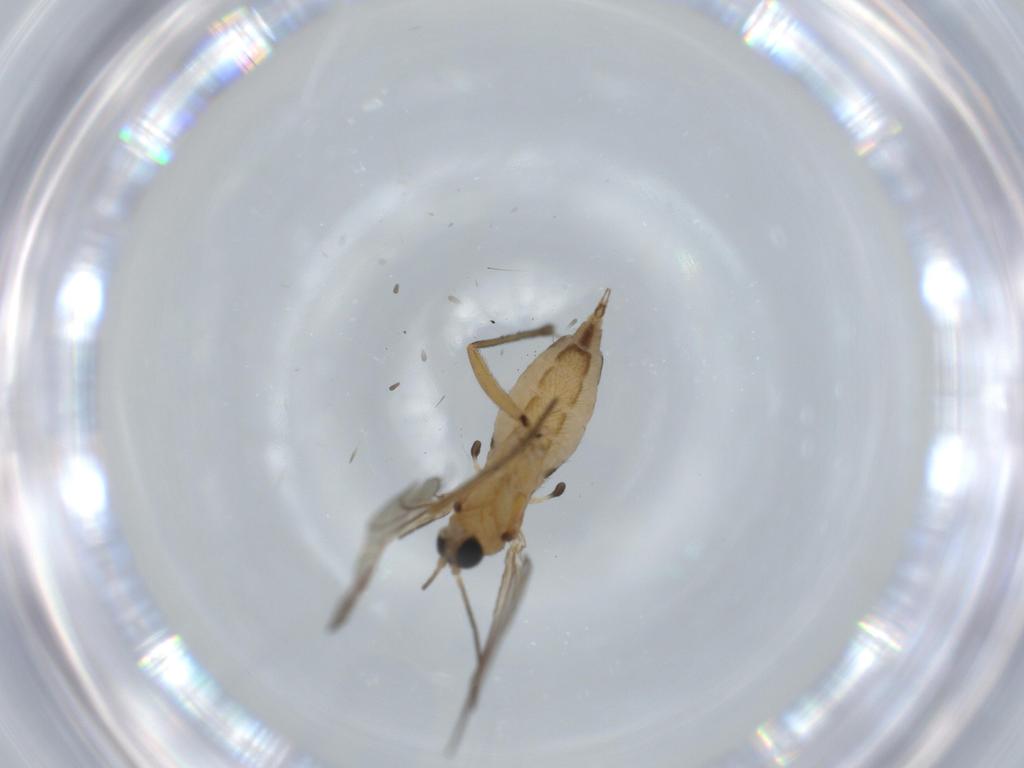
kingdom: Animalia
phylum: Arthropoda
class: Insecta
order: Diptera
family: Sciaridae
